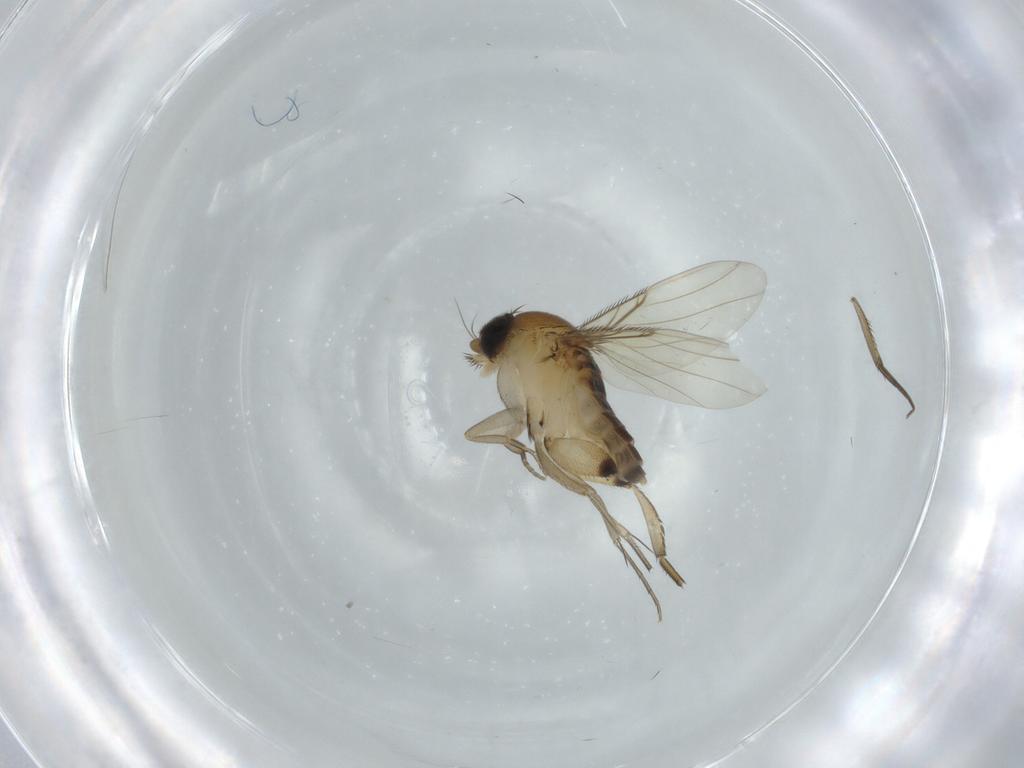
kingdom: Animalia
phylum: Arthropoda
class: Insecta
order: Diptera
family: Phoridae
